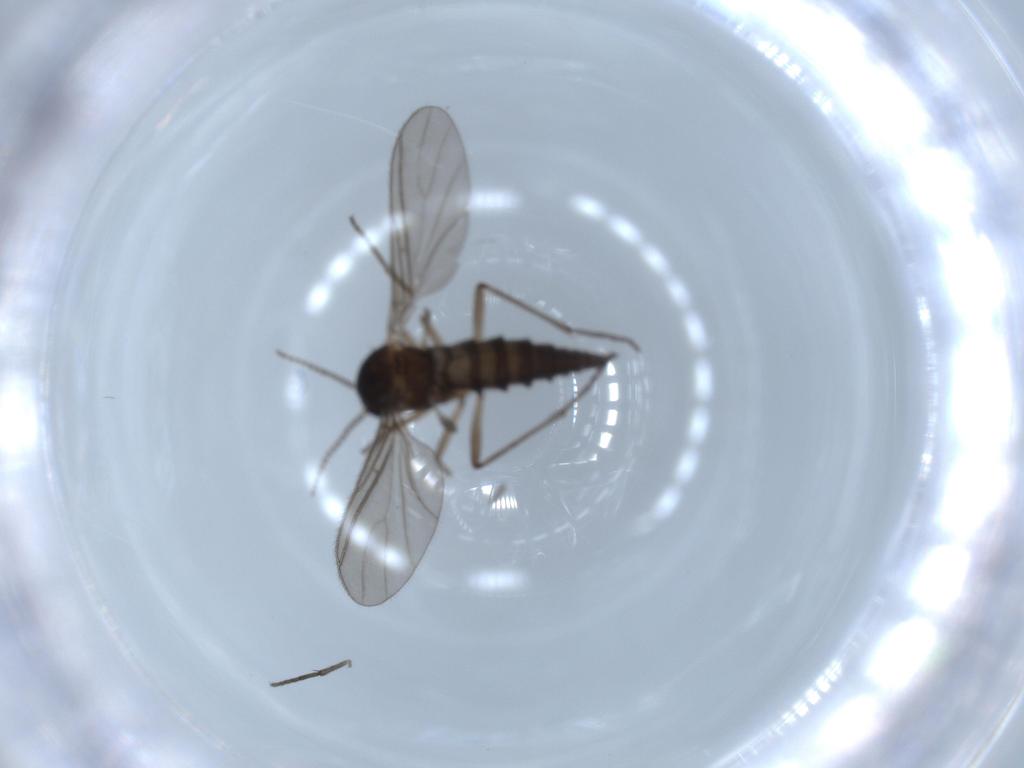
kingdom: Animalia
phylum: Arthropoda
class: Insecta
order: Diptera
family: Sciaridae
